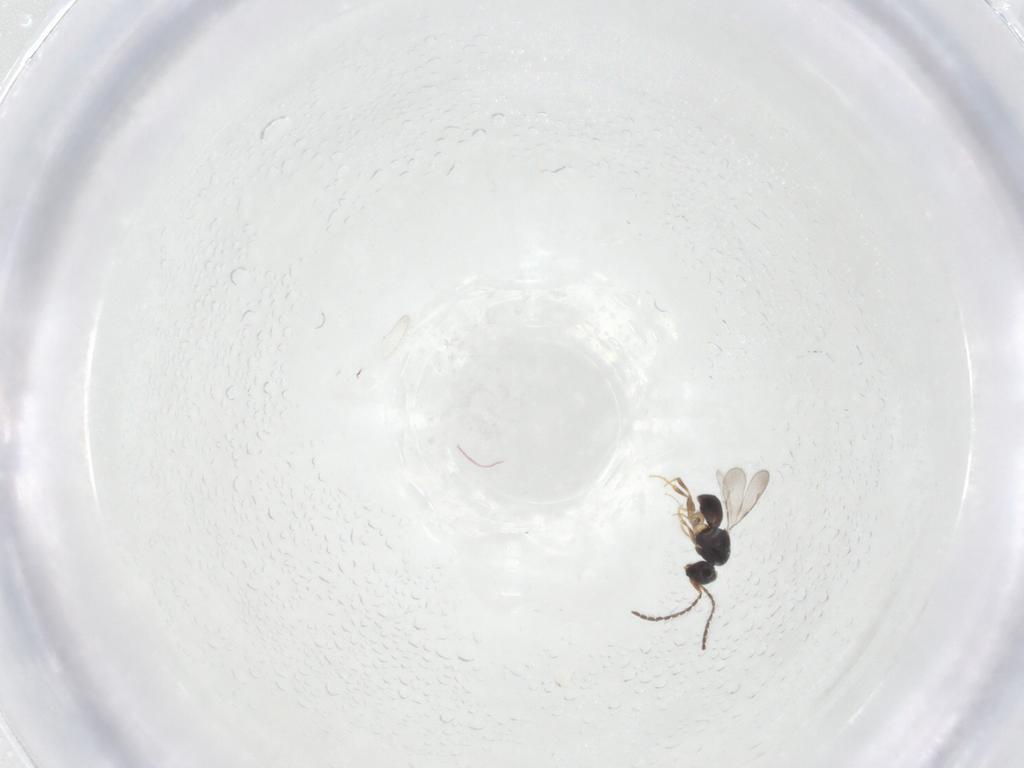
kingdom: Animalia
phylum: Arthropoda
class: Insecta
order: Hymenoptera
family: Ceraphronidae
